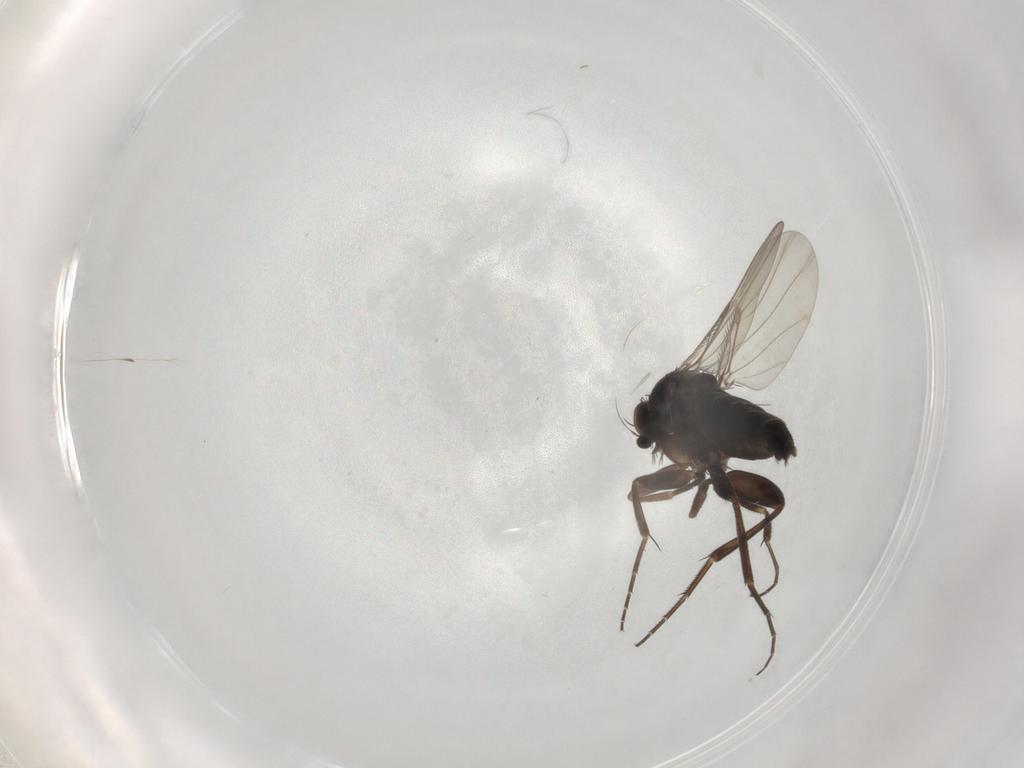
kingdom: Animalia
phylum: Arthropoda
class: Insecta
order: Diptera
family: Phoridae
